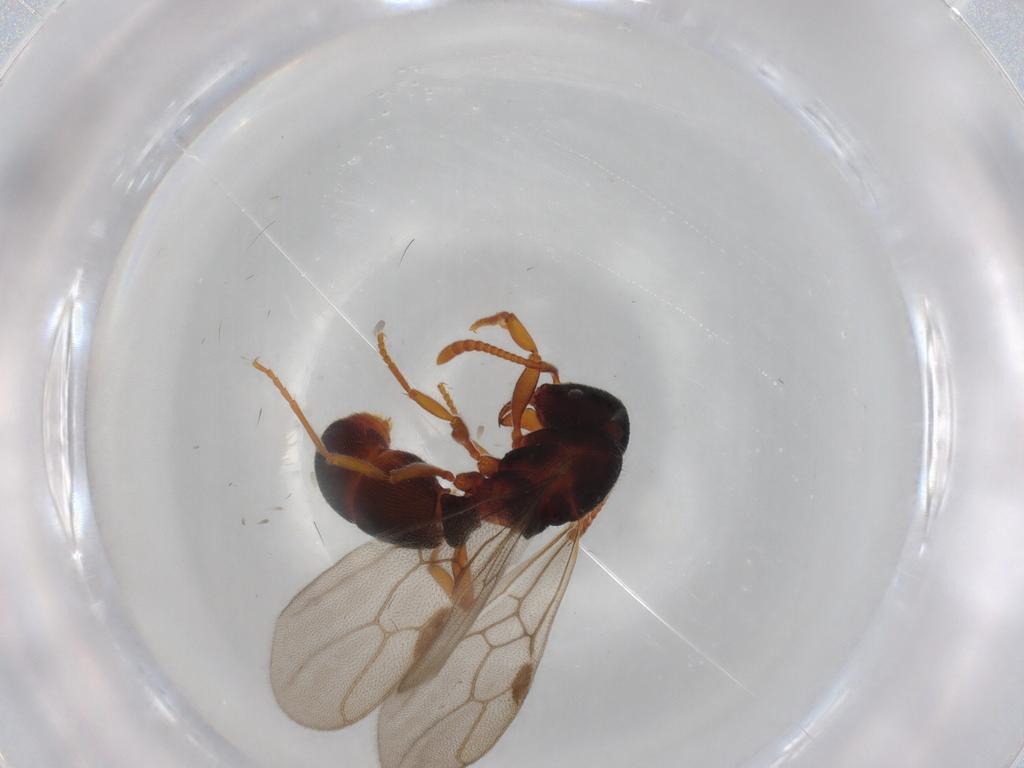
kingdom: Animalia
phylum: Arthropoda
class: Insecta
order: Hymenoptera
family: Formicidae
